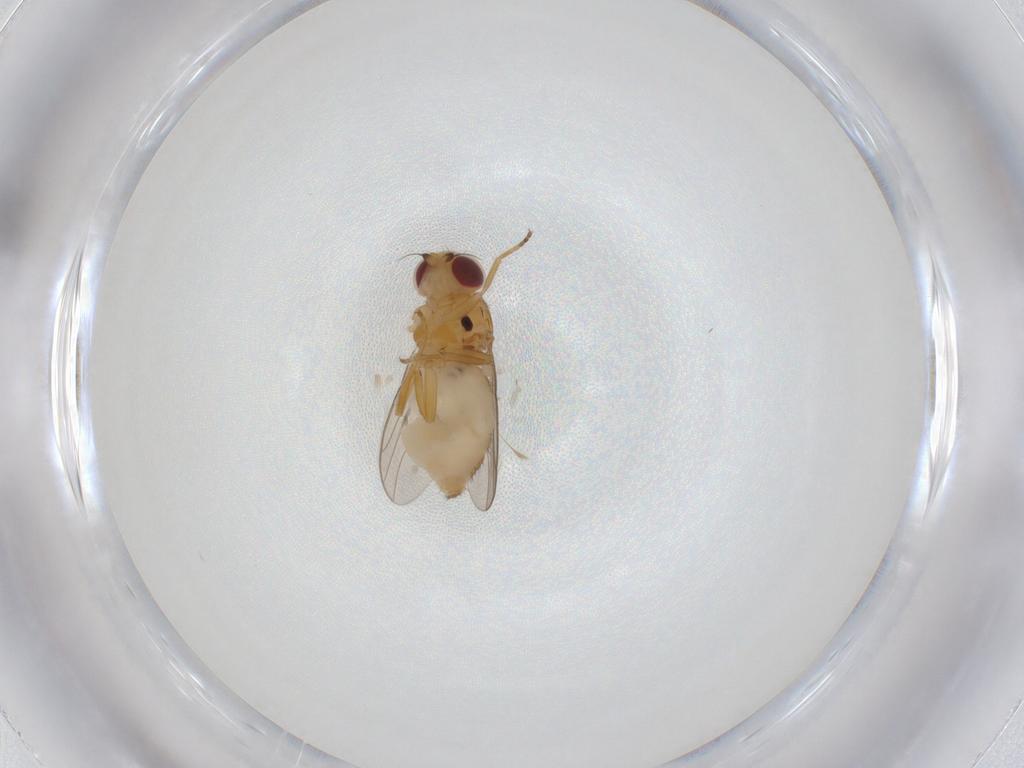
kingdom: Animalia
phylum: Arthropoda
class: Insecta
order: Diptera
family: Chloropidae
